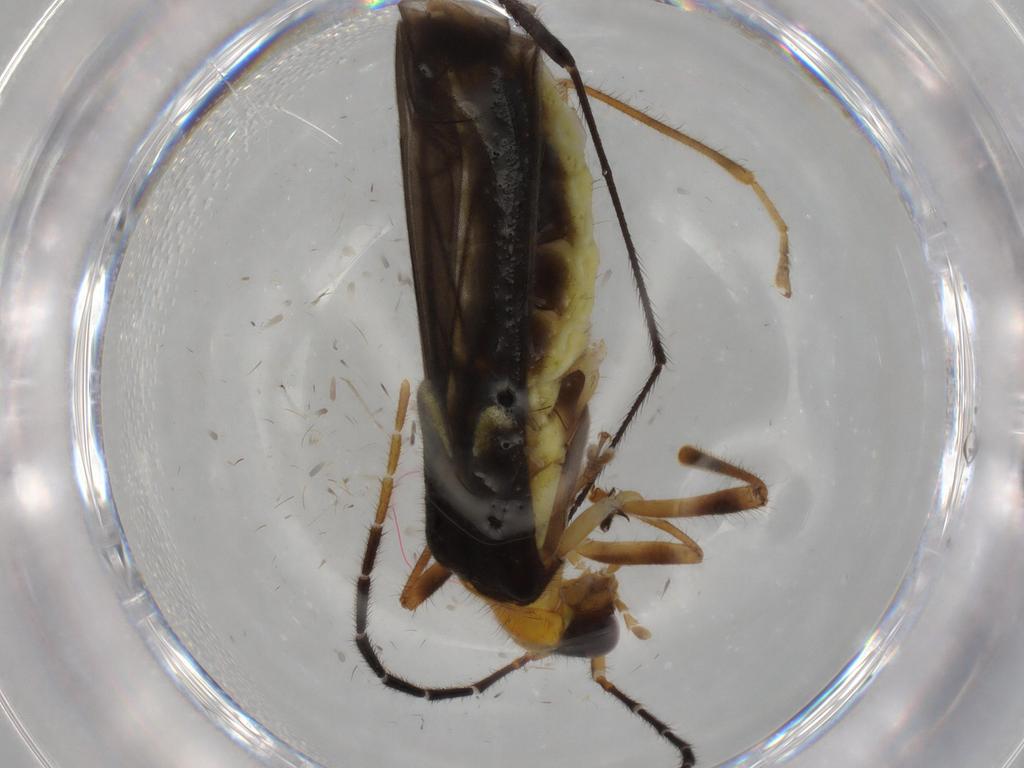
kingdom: Animalia
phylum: Arthropoda
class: Insecta
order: Coleoptera
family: Cantharidae
